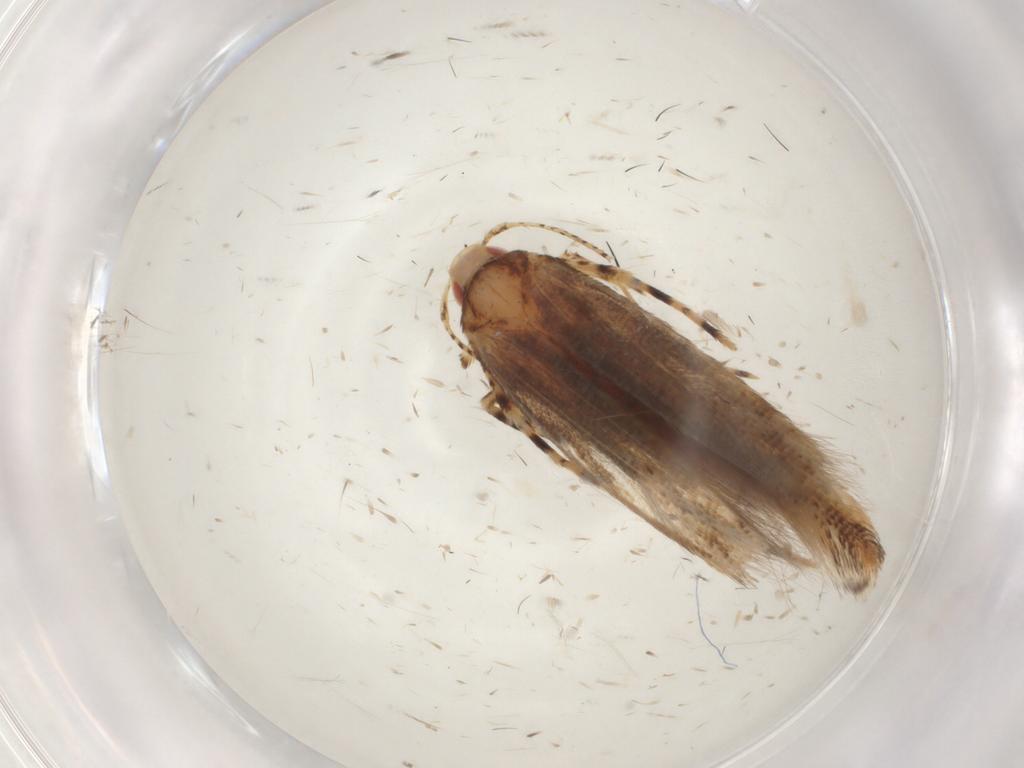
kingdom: Animalia
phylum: Arthropoda
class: Insecta
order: Lepidoptera
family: Cosmopterigidae
